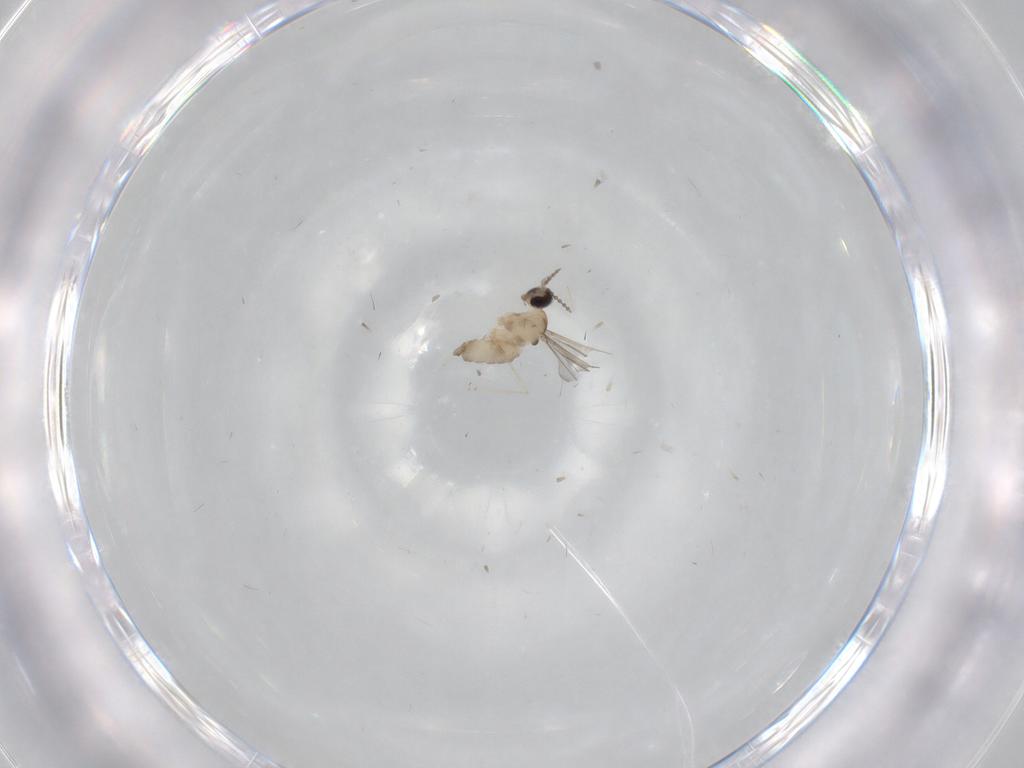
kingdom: Animalia
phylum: Arthropoda
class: Insecta
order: Diptera
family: Cecidomyiidae
